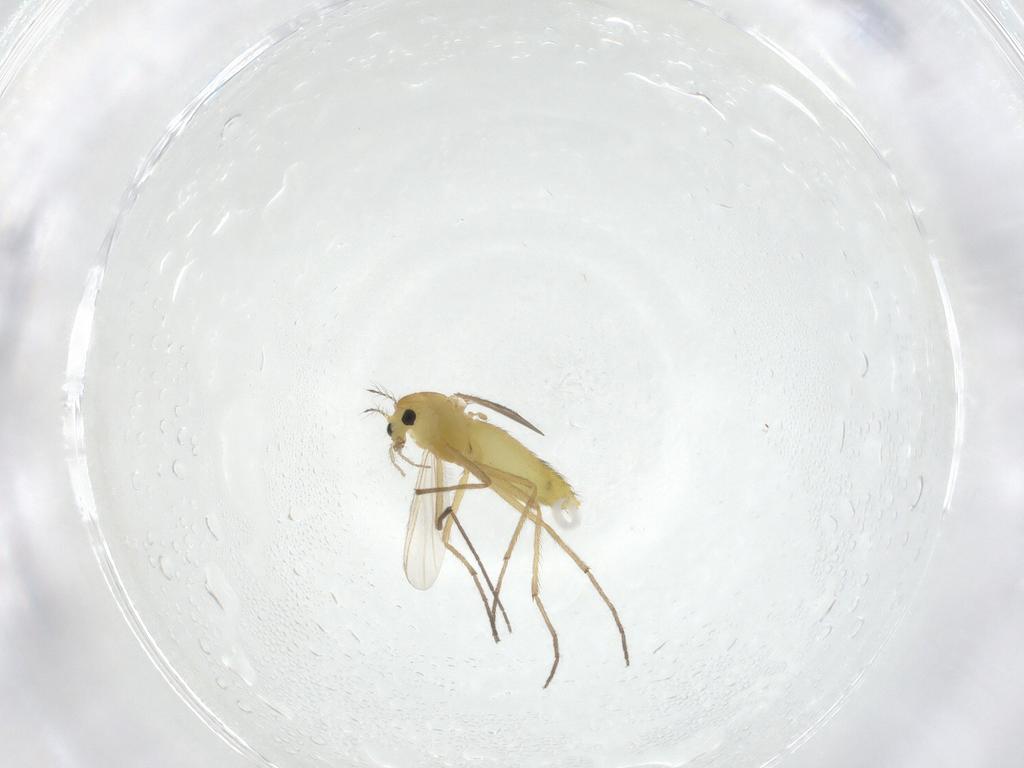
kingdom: Animalia
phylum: Arthropoda
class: Insecta
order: Diptera
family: Chironomidae
